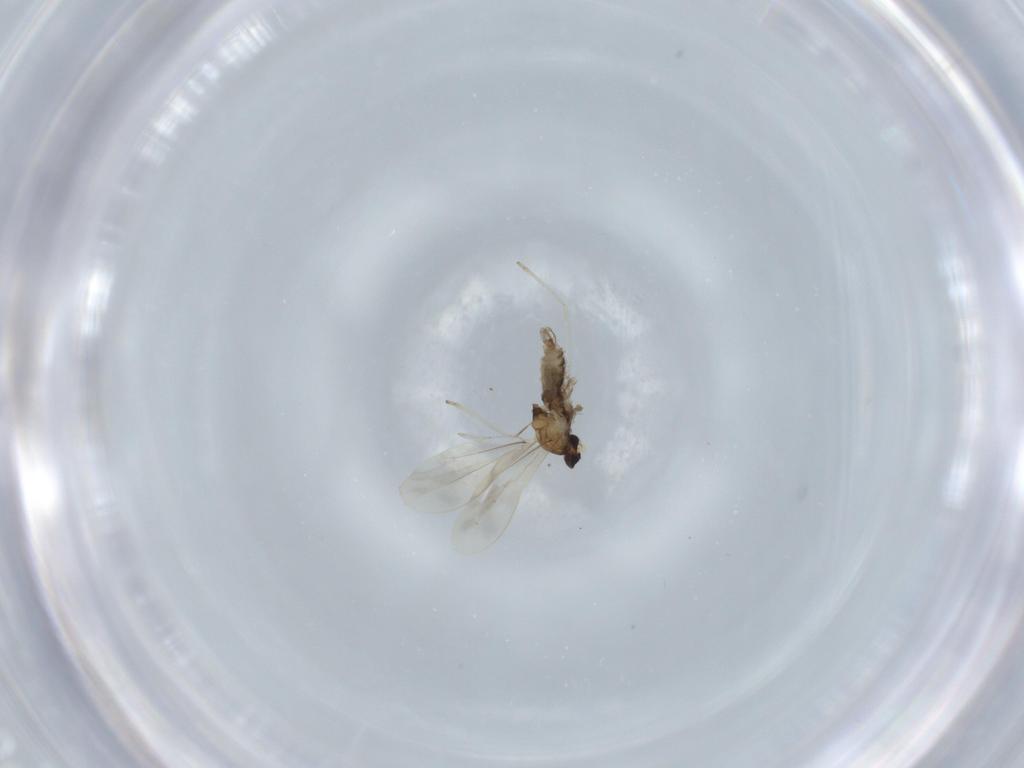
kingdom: Animalia
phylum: Arthropoda
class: Insecta
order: Diptera
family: Cecidomyiidae
